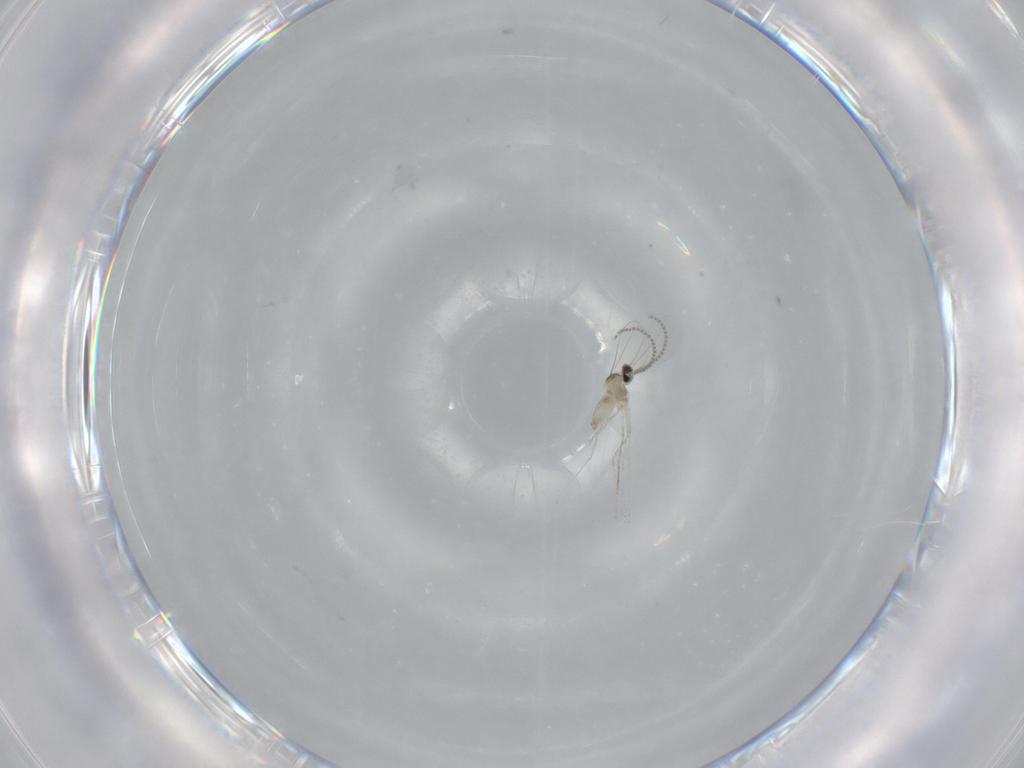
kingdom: Animalia
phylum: Arthropoda
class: Insecta
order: Diptera
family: Cecidomyiidae
